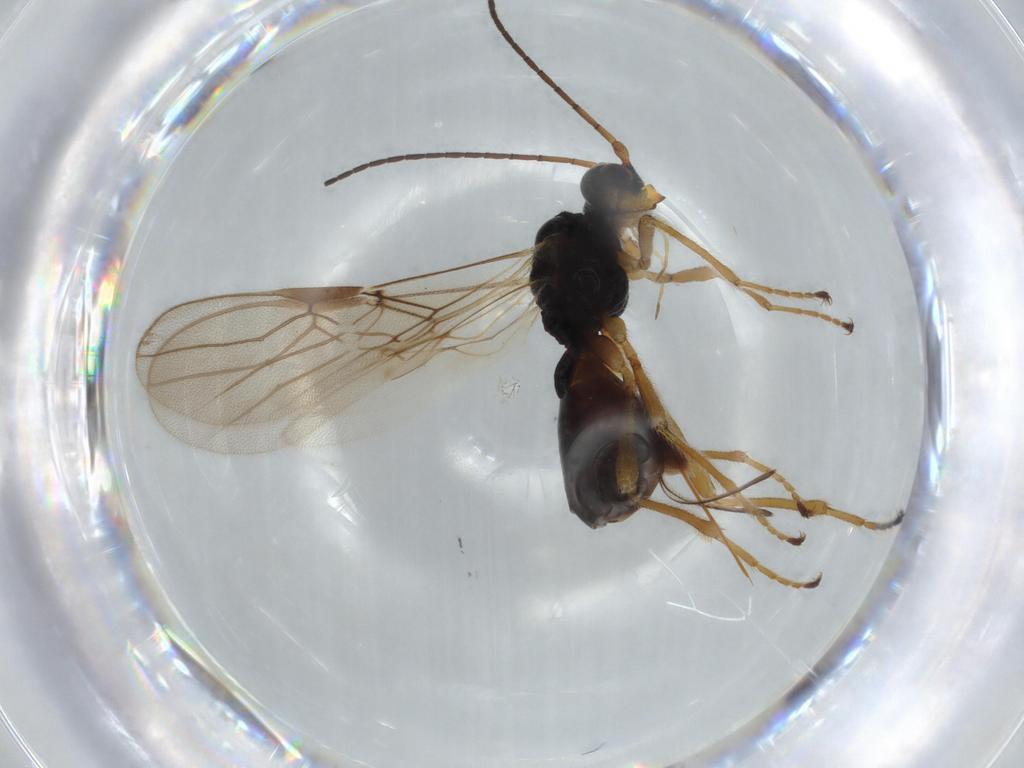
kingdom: Animalia
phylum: Arthropoda
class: Insecta
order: Hymenoptera
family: Braconidae
